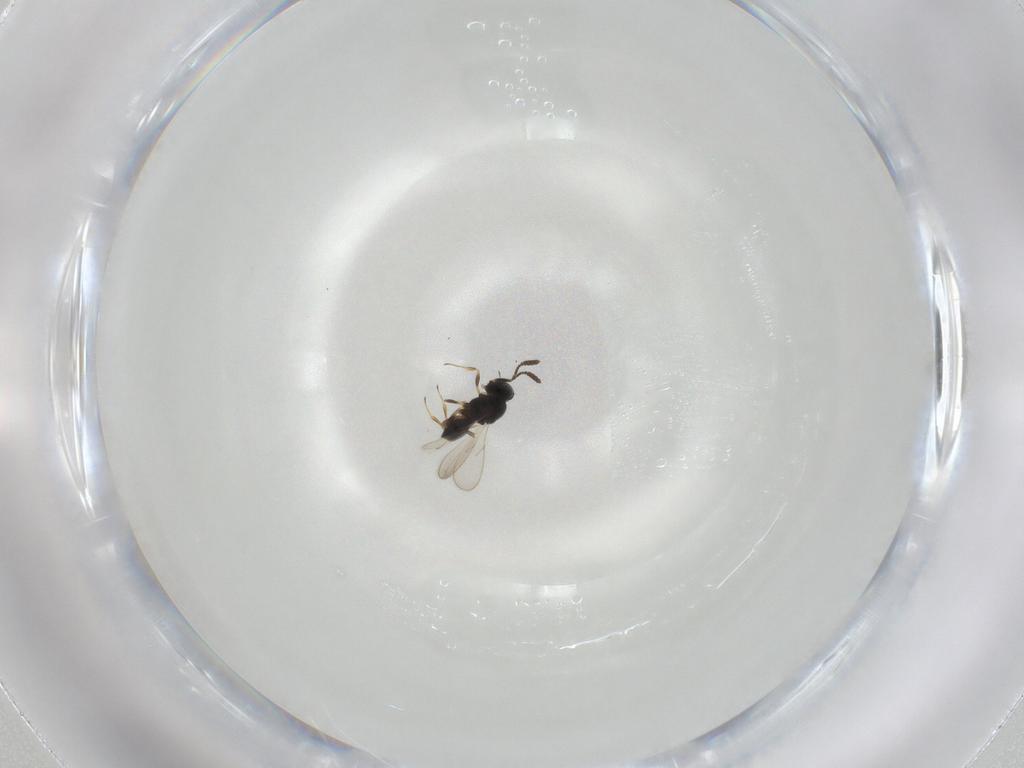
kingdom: Animalia
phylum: Arthropoda
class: Insecta
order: Hymenoptera
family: Scelionidae
